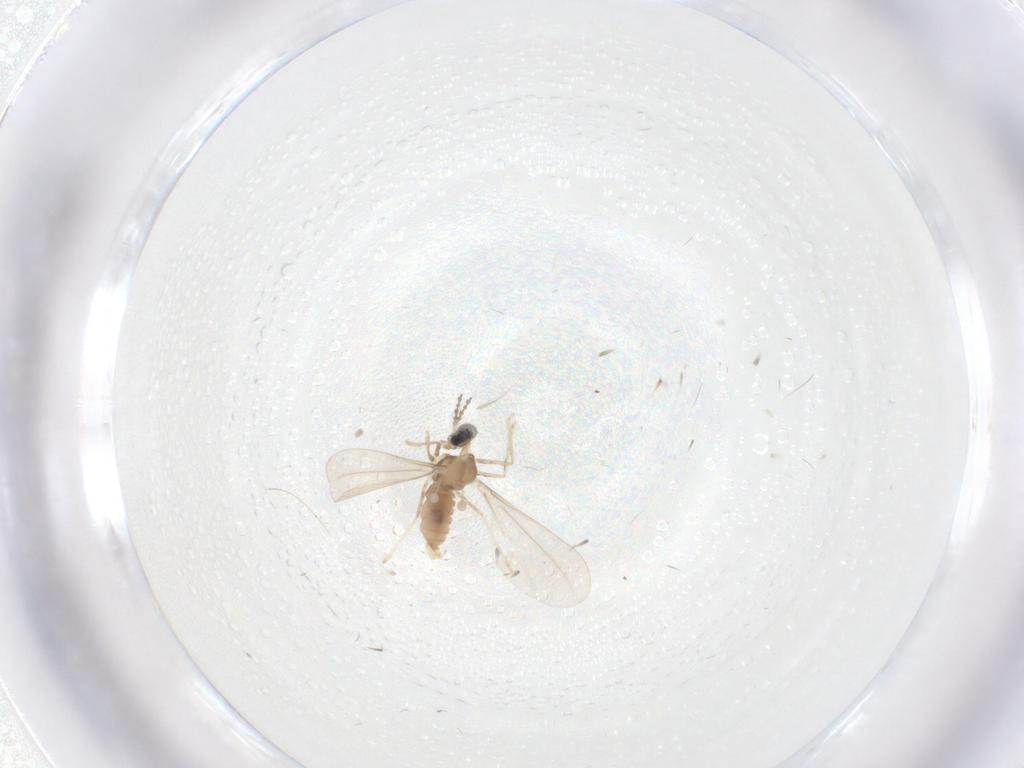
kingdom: Animalia
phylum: Arthropoda
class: Insecta
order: Diptera
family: Cecidomyiidae
